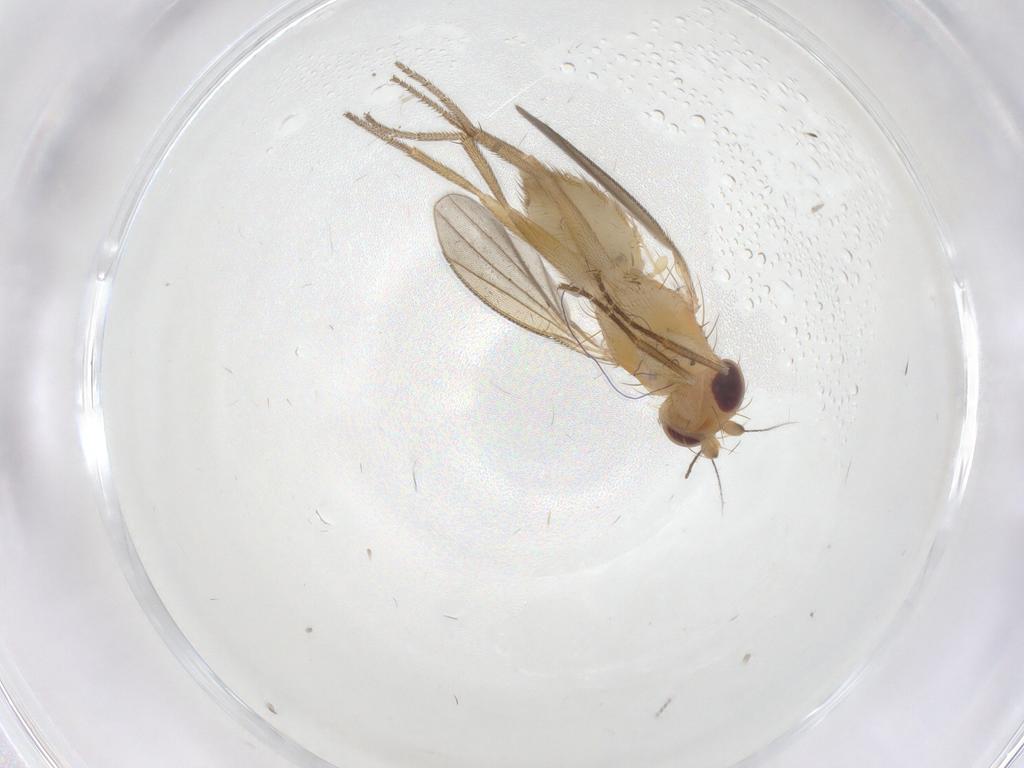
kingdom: Animalia
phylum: Arthropoda
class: Insecta
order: Diptera
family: Clusiidae
